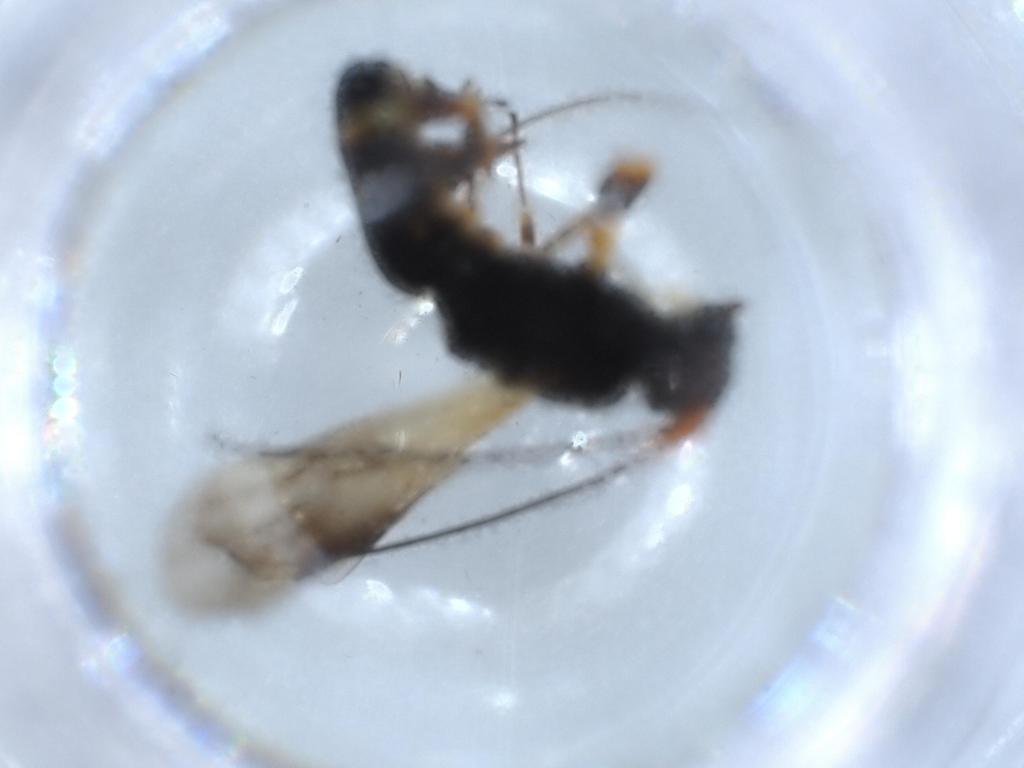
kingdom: Animalia
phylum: Arthropoda
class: Insecta
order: Hymenoptera
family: Braconidae
